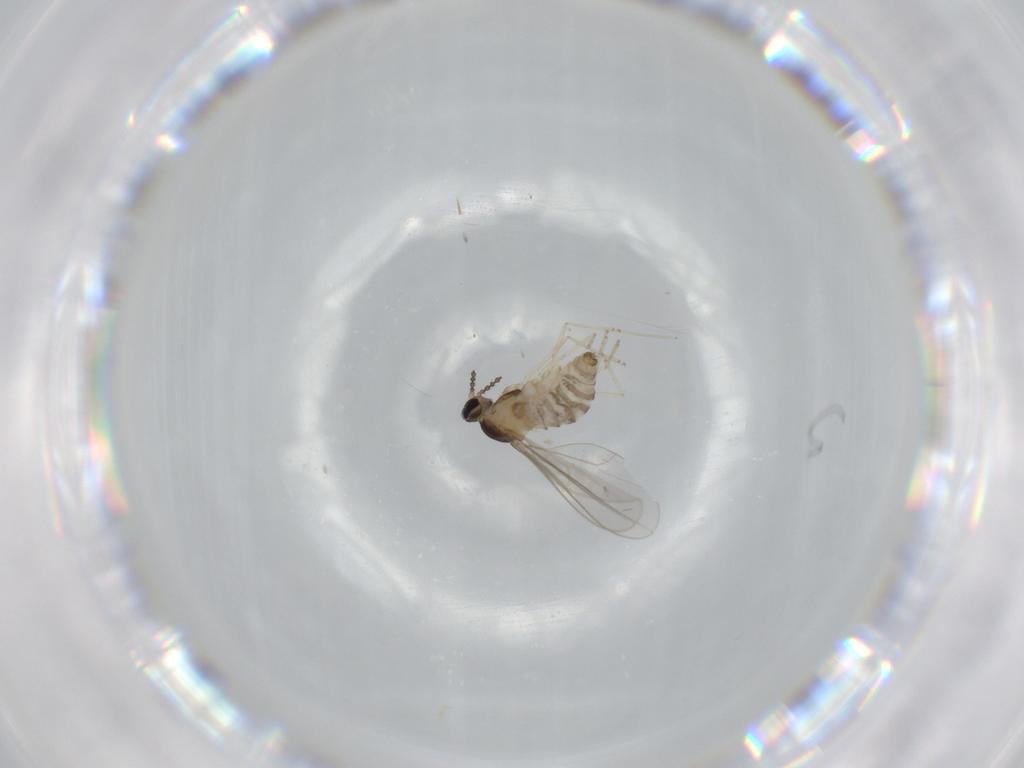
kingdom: Animalia
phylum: Arthropoda
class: Insecta
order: Diptera
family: Cecidomyiidae
